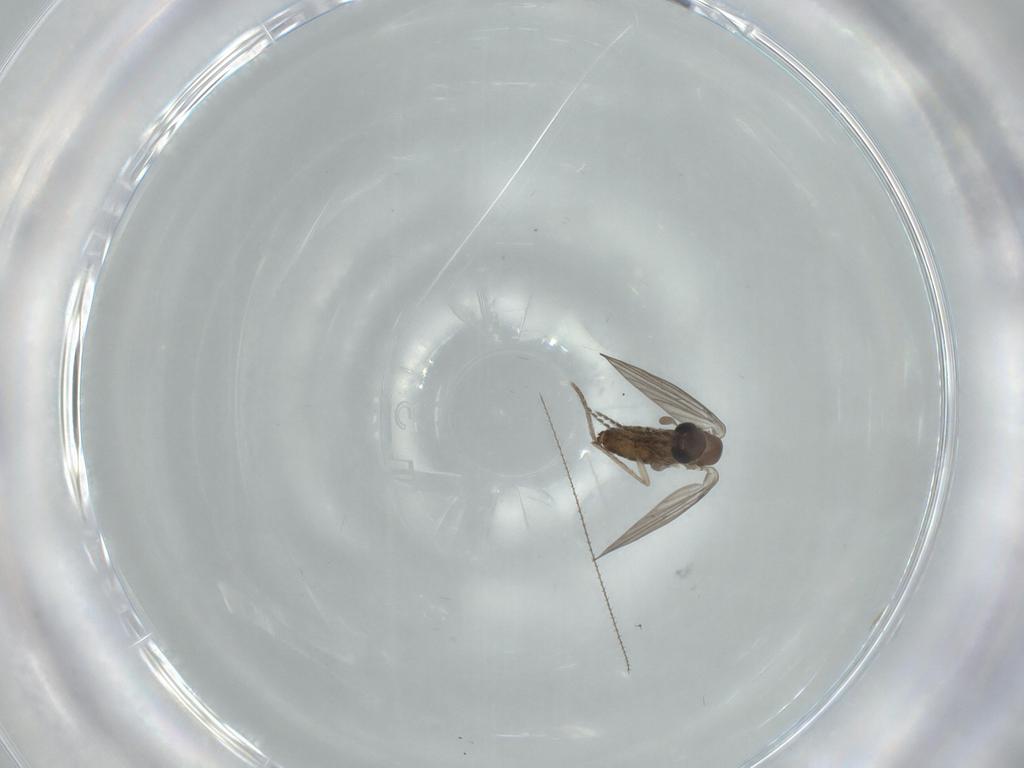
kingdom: Animalia
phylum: Arthropoda
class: Insecta
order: Diptera
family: Psychodidae
